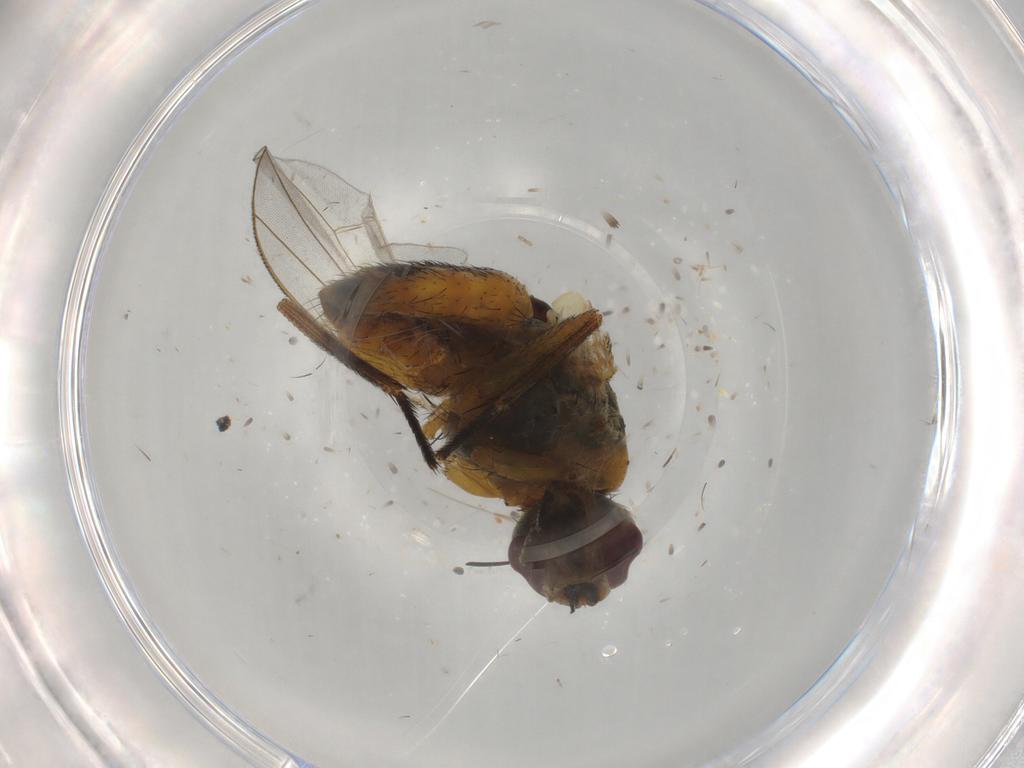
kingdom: Animalia
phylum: Arthropoda
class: Insecta
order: Diptera
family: Muscidae
